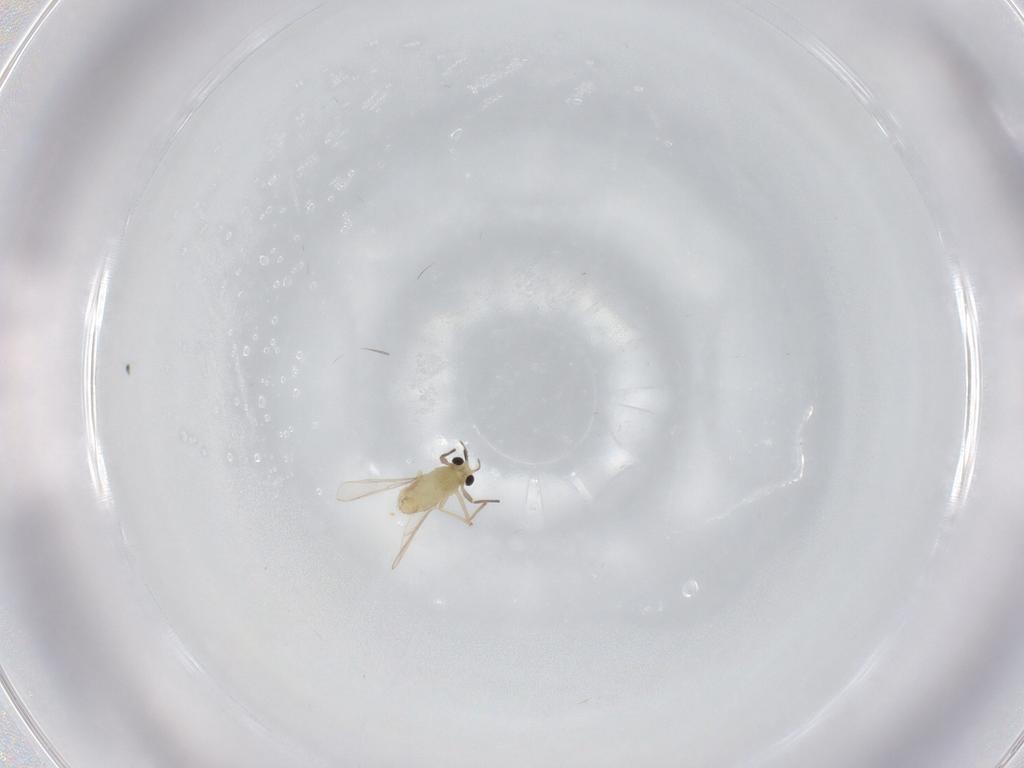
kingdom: Animalia
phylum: Arthropoda
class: Insecta
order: Diptera
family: Chironomidae
